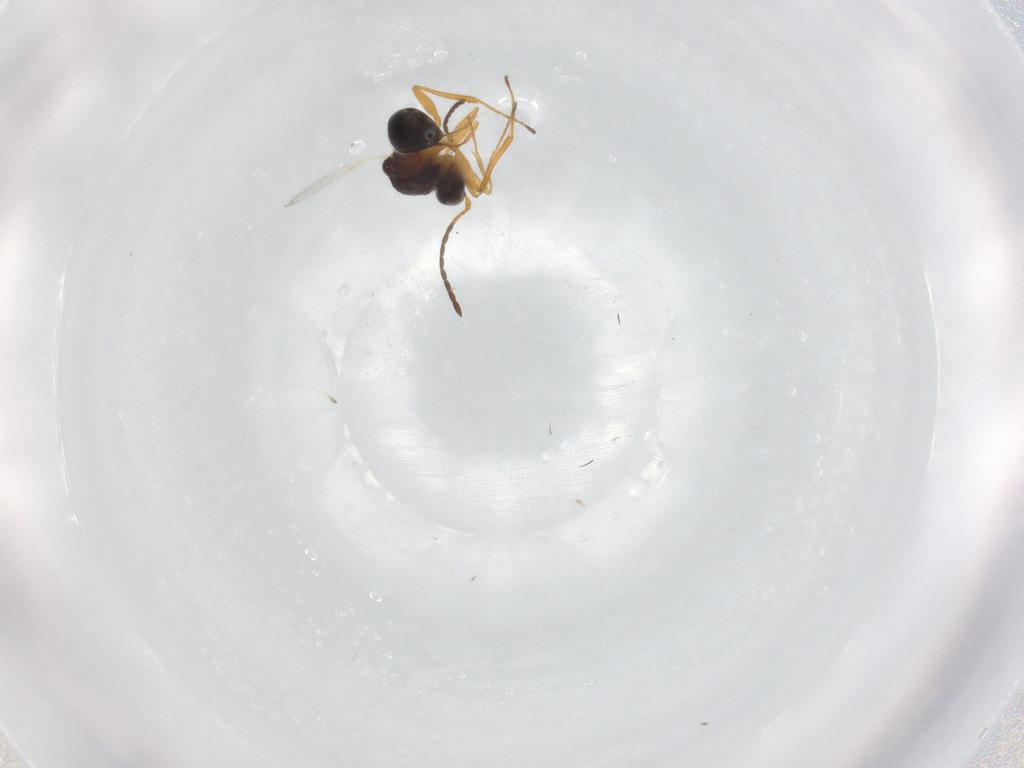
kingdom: Animalia
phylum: Arthropoda
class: Insecta
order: Hymenoptera
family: Figitidae
